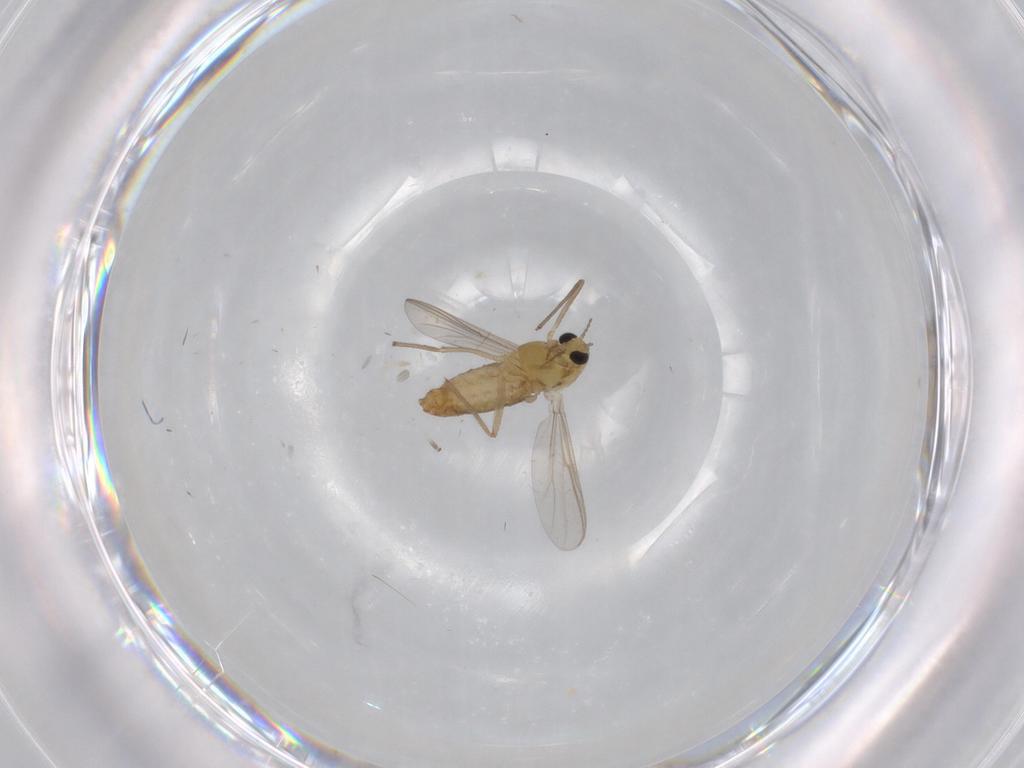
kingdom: Animalia
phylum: Arthropoda
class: Insecta
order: Diptera
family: Chironomidae
